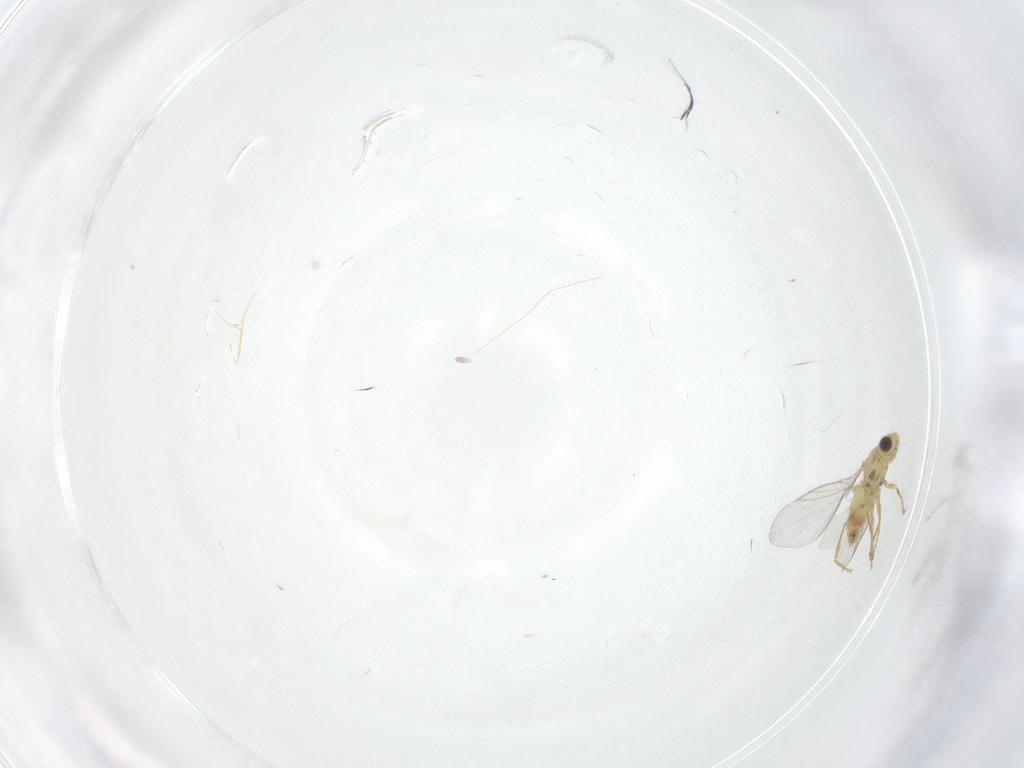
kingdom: Animalia
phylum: Arthropoda
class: Insecta
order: Diptera
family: Agromyzidae
